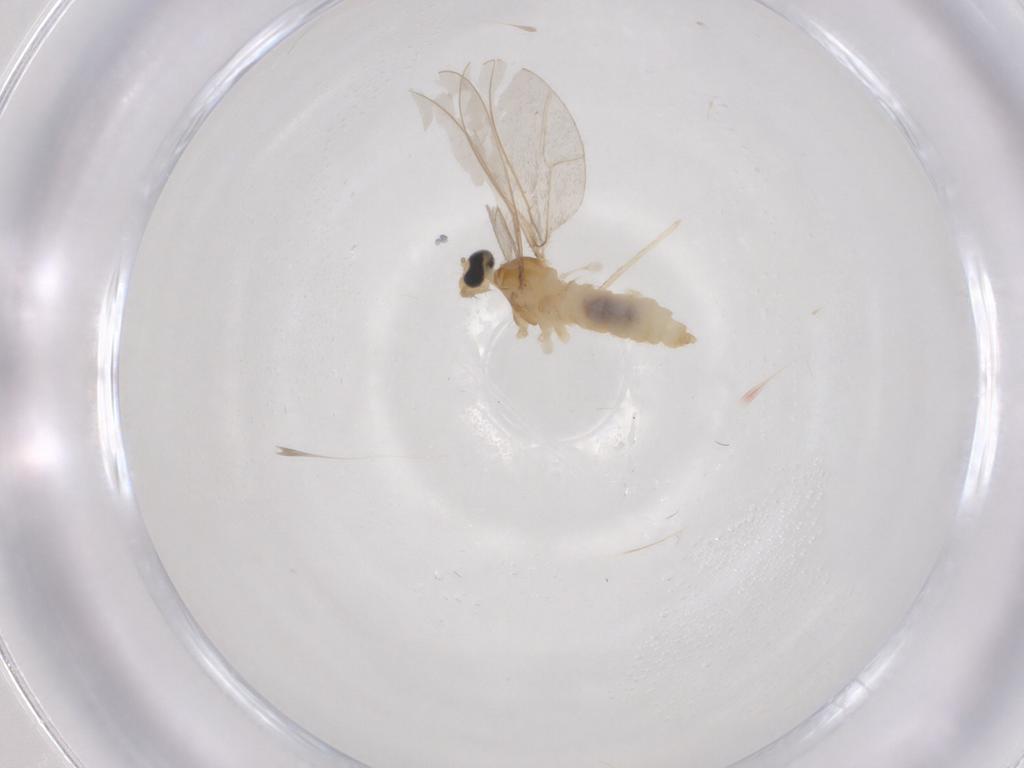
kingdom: Animalia
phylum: Arthropoda
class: Insecta
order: Diptera
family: Cecidomyiidae
